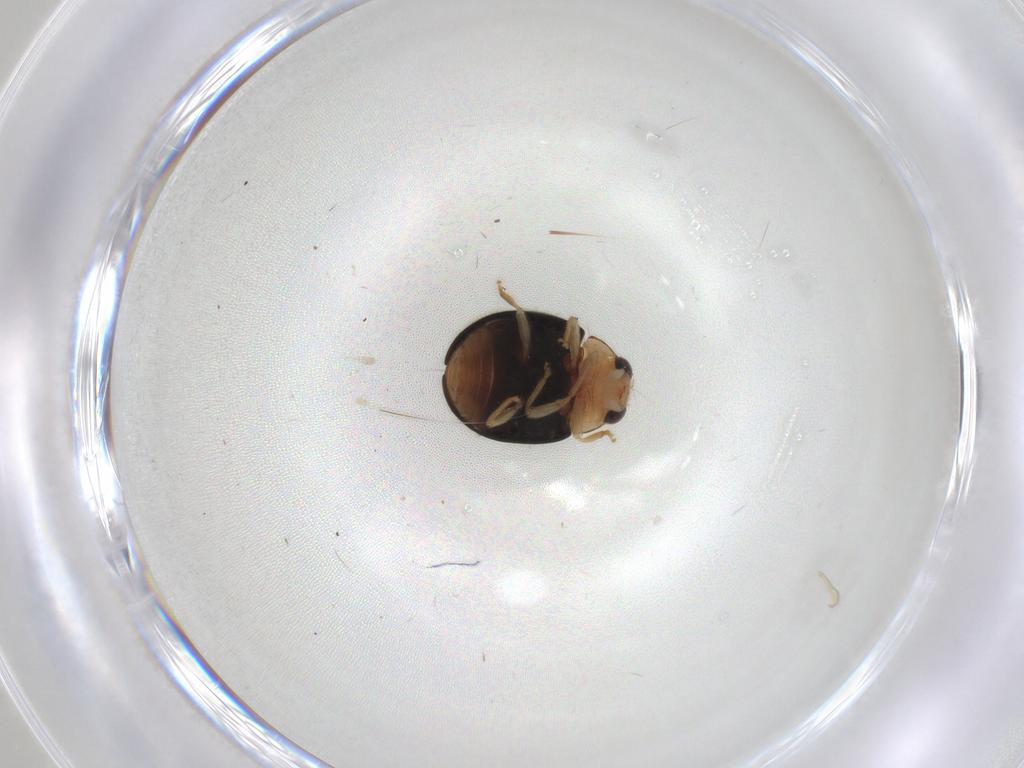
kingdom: Animalia
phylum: Arthropoda
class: Insecta
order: Coleoptera
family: Coccinellidae
